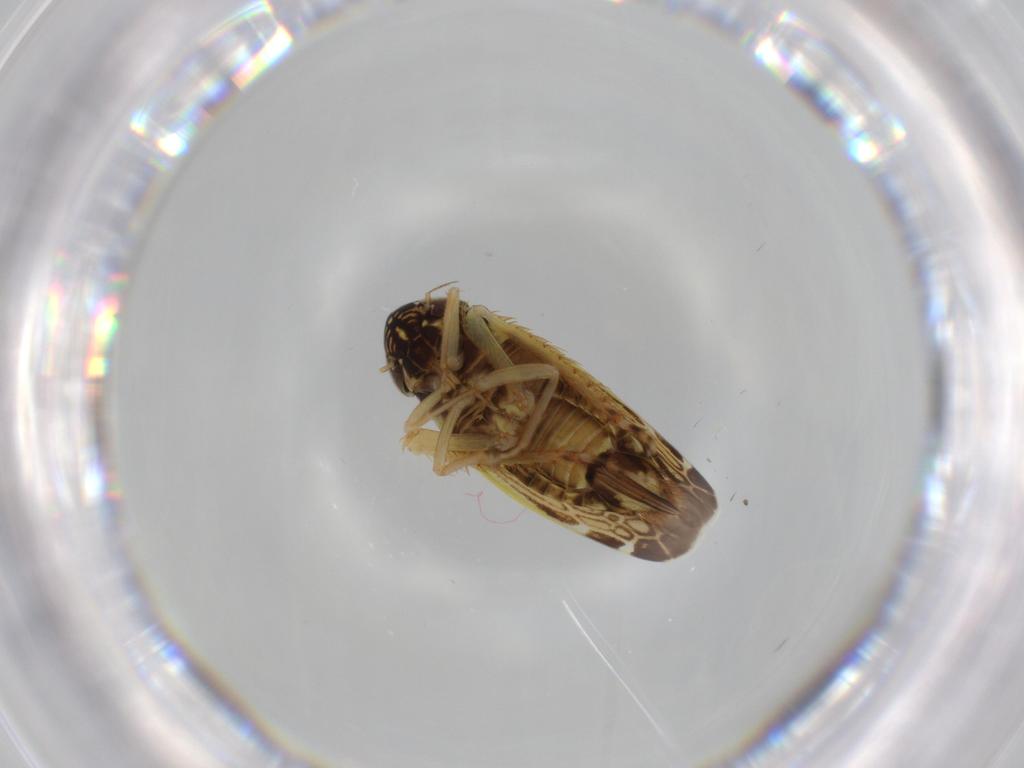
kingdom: Animalia
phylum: Arthropoda
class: Insecta
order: Hemiptera
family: Cicadellidae
